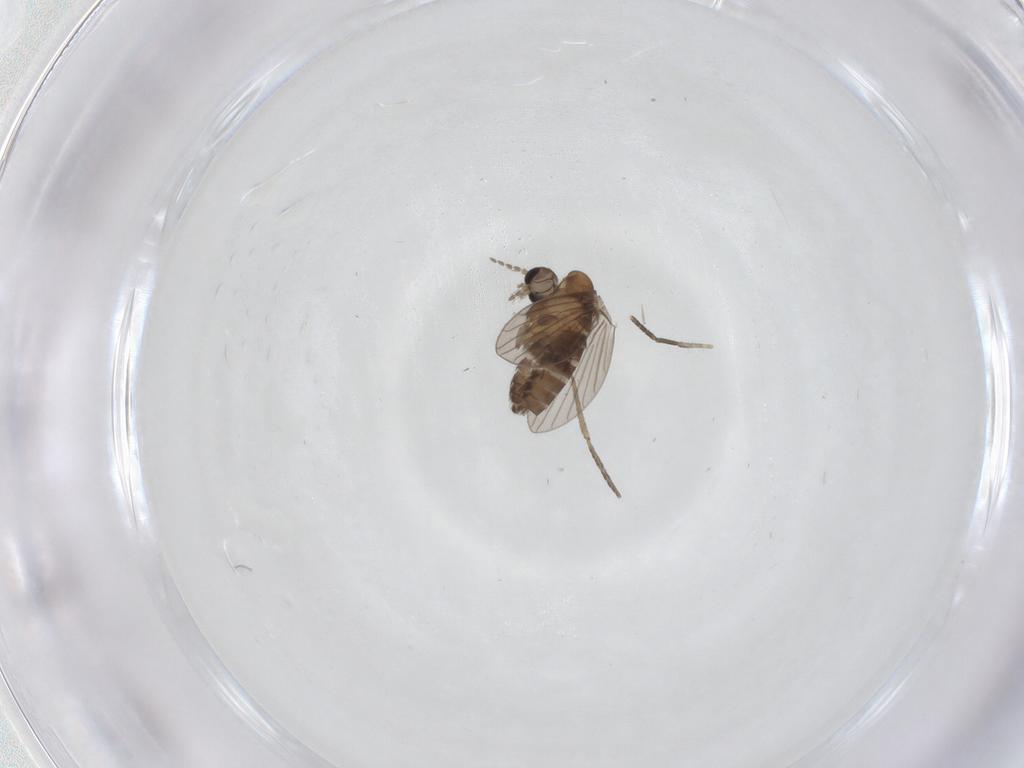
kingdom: Animalia
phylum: Arthropoda
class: Insecta
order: Diptera
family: Psychodidae
